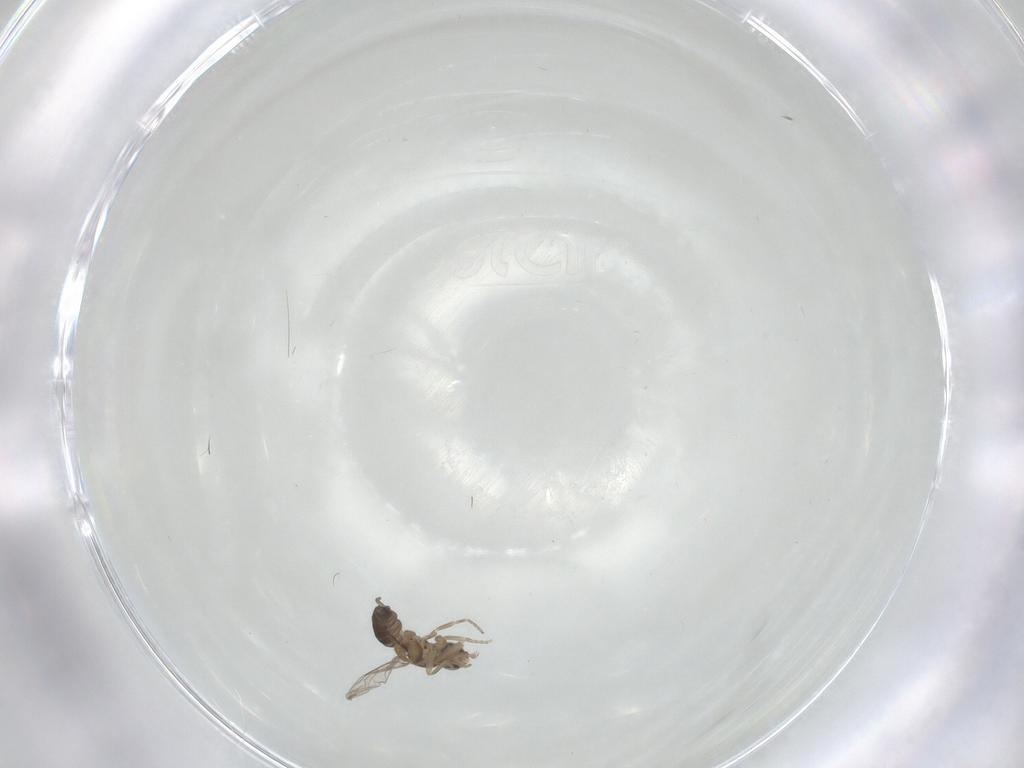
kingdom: Animalia
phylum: Arthropoda
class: Insecta
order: Diptera
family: Phoridae
